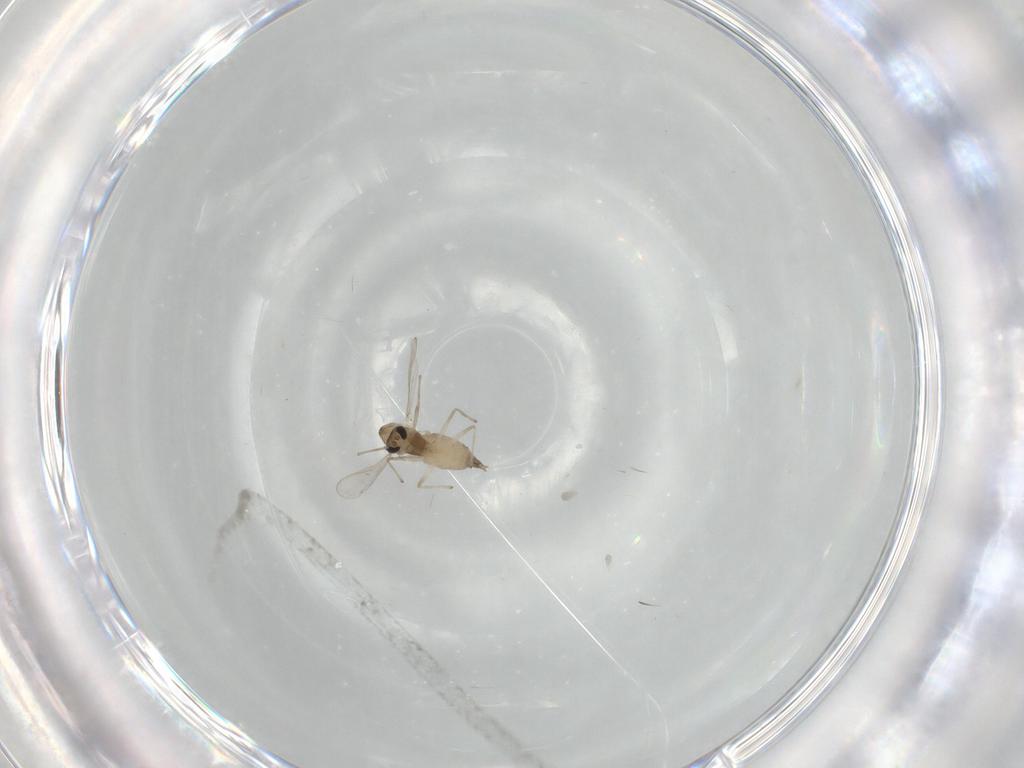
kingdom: Animalia
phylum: Arthropoda
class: Insecta
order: Diptera
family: Chironomidae
